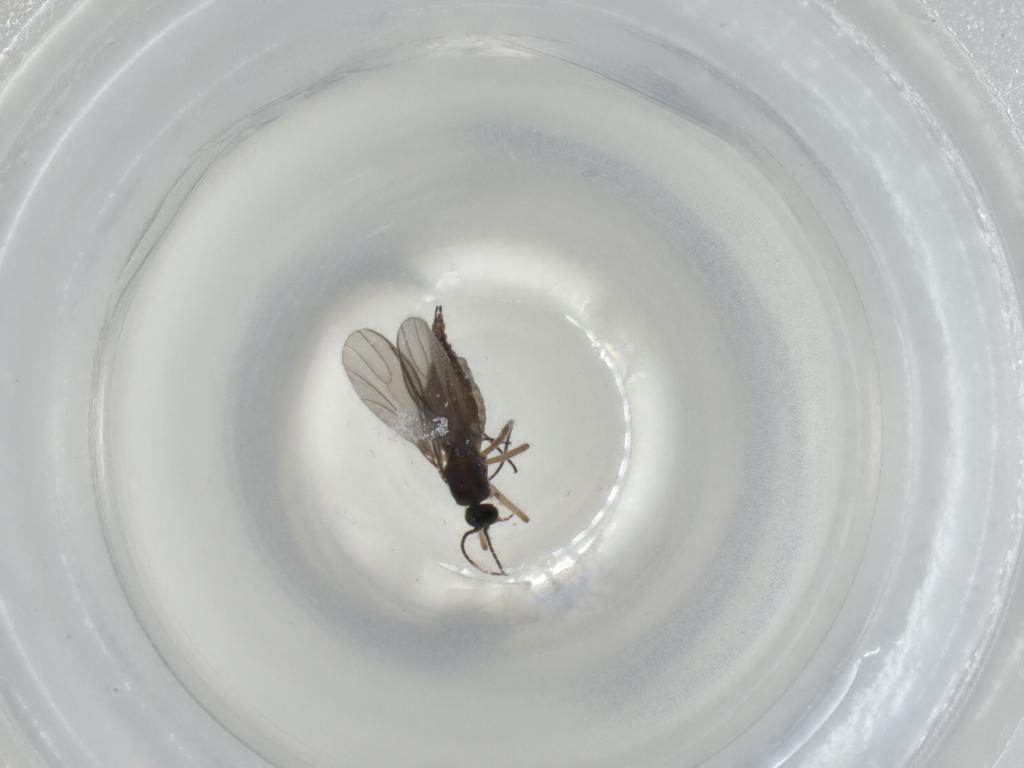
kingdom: Animalia
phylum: Arthropoda
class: Insecta
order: Diptera
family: Sciaridae
